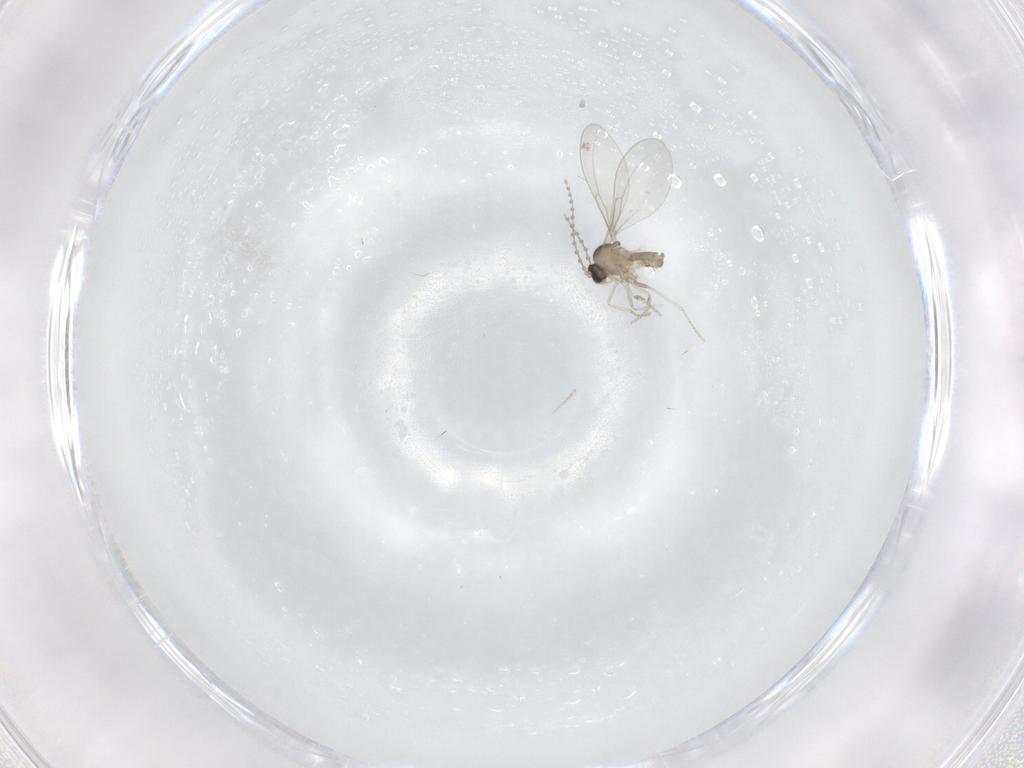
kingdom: Animalia
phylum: Arthropoda
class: Insecta
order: Diptera
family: Cecidomyiidae
